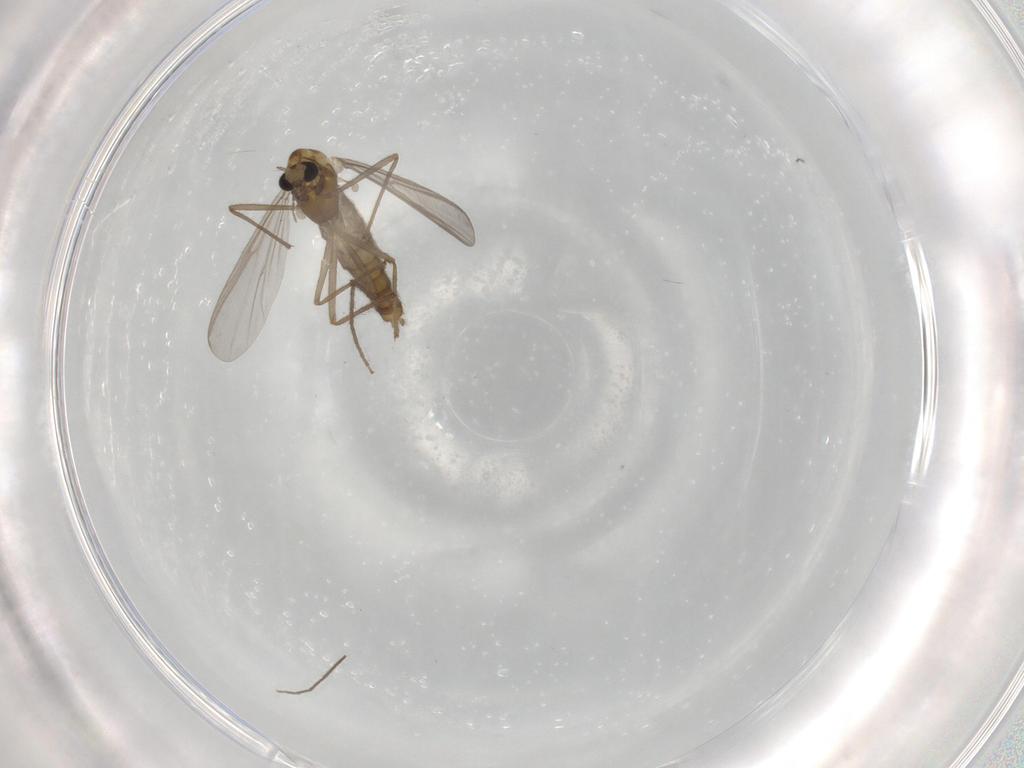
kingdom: Animalia
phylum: Arthropoda
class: Insecta
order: Diptera
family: Chironomidae
